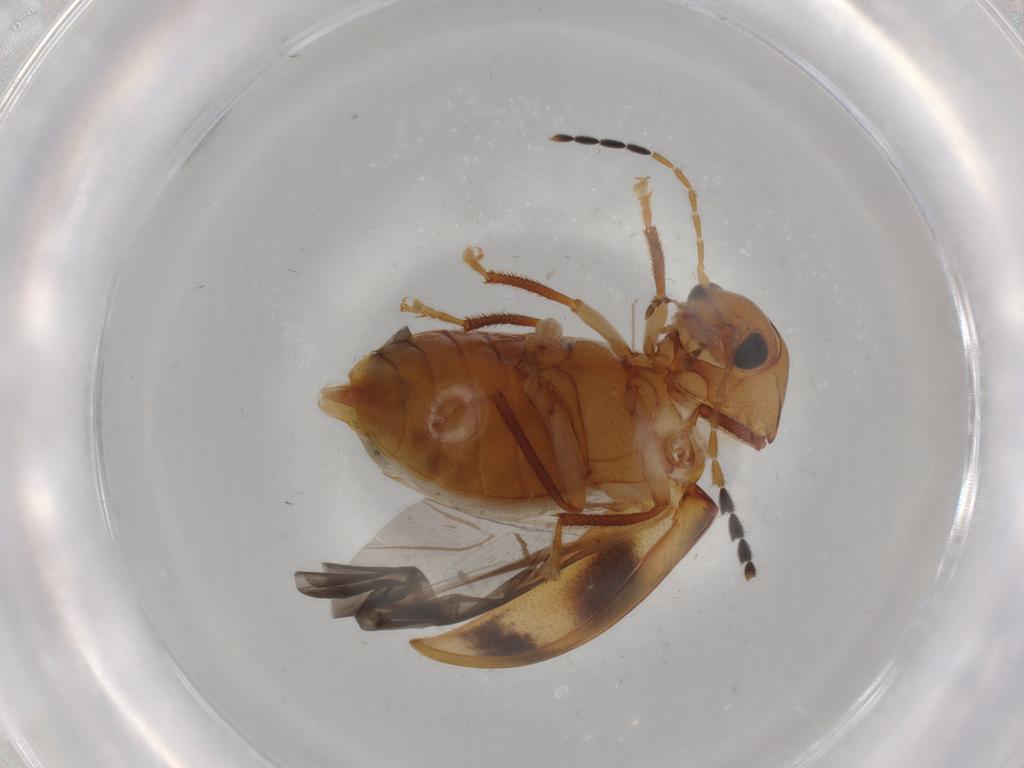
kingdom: Animalia
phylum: Arthropoda
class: Insecta
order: Coleoptera
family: Ptilodactylidae
